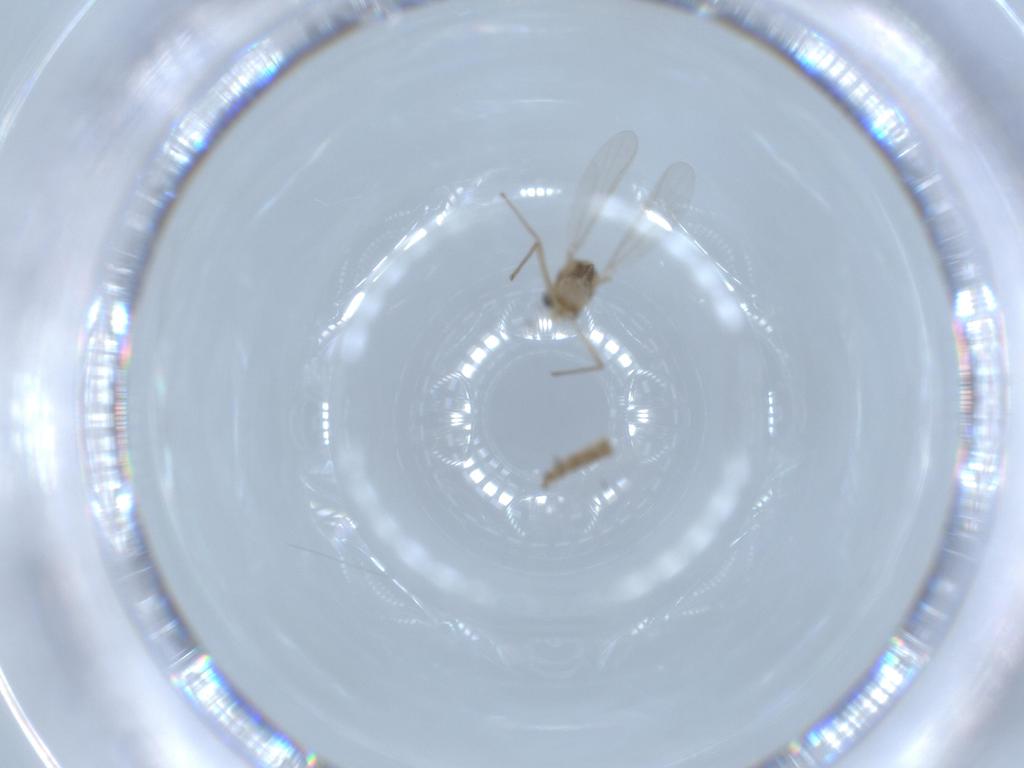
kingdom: Animalia
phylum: Arthropoda
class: Insecta
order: Diptera
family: Chironomidae
